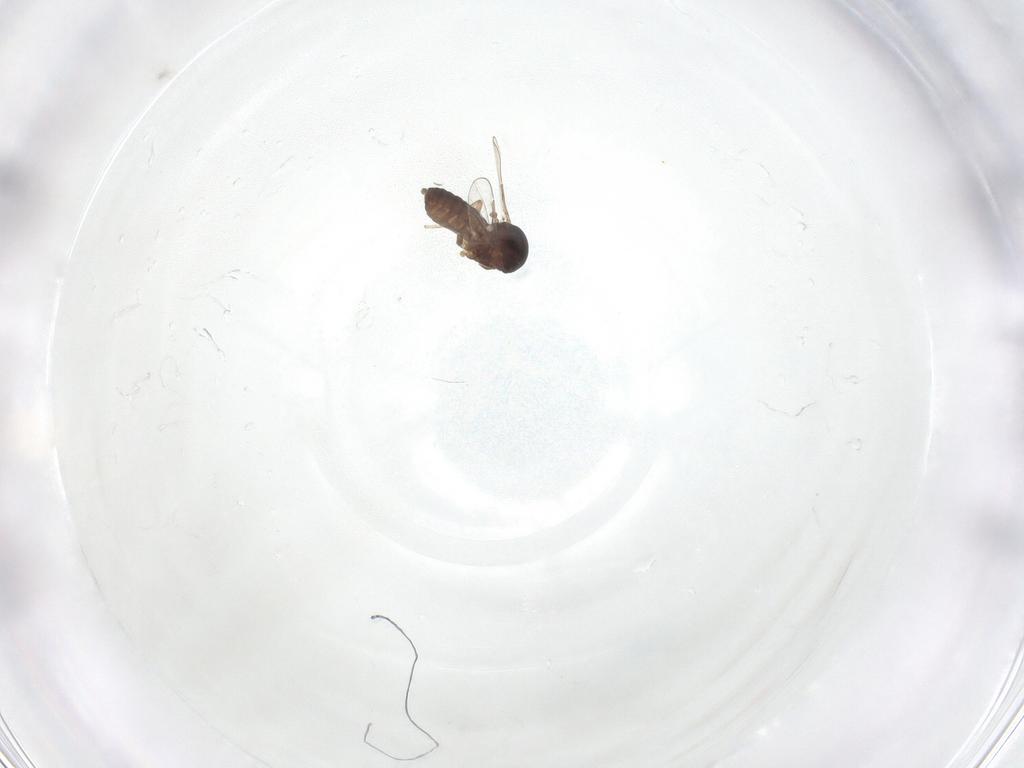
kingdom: Animalia
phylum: Arthropoda
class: Insecta
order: Diptera
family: Ceratopogonidae
